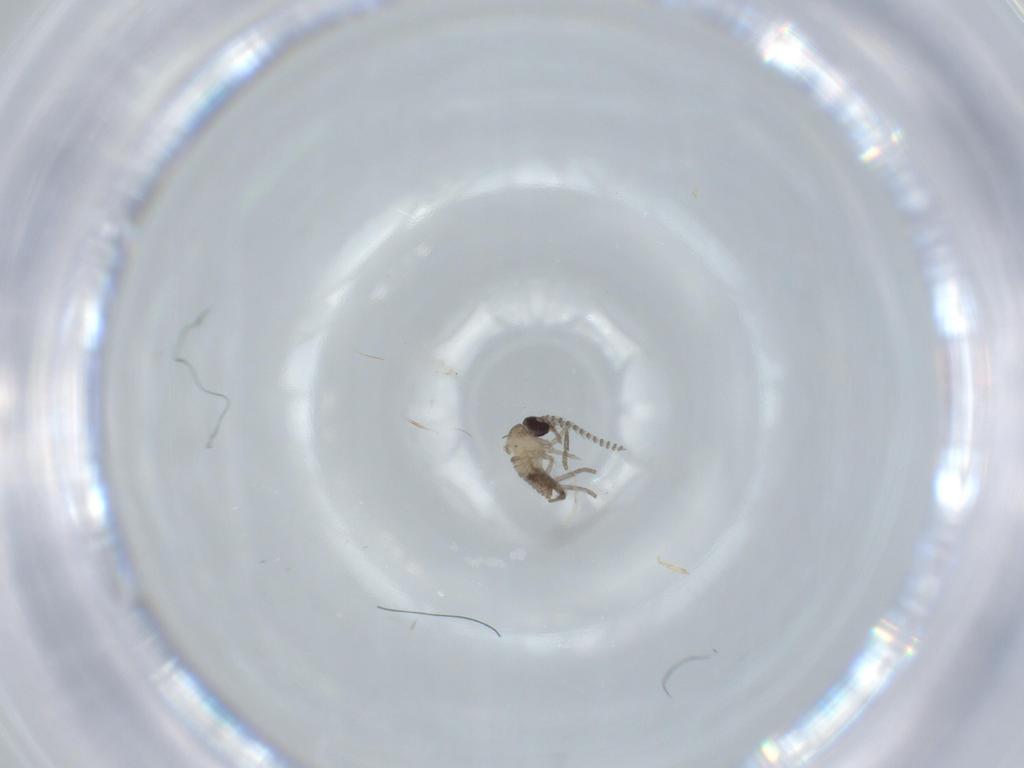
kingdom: Animalia
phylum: Arthropoda
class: Insecta
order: Diptera
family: Psychodidae
